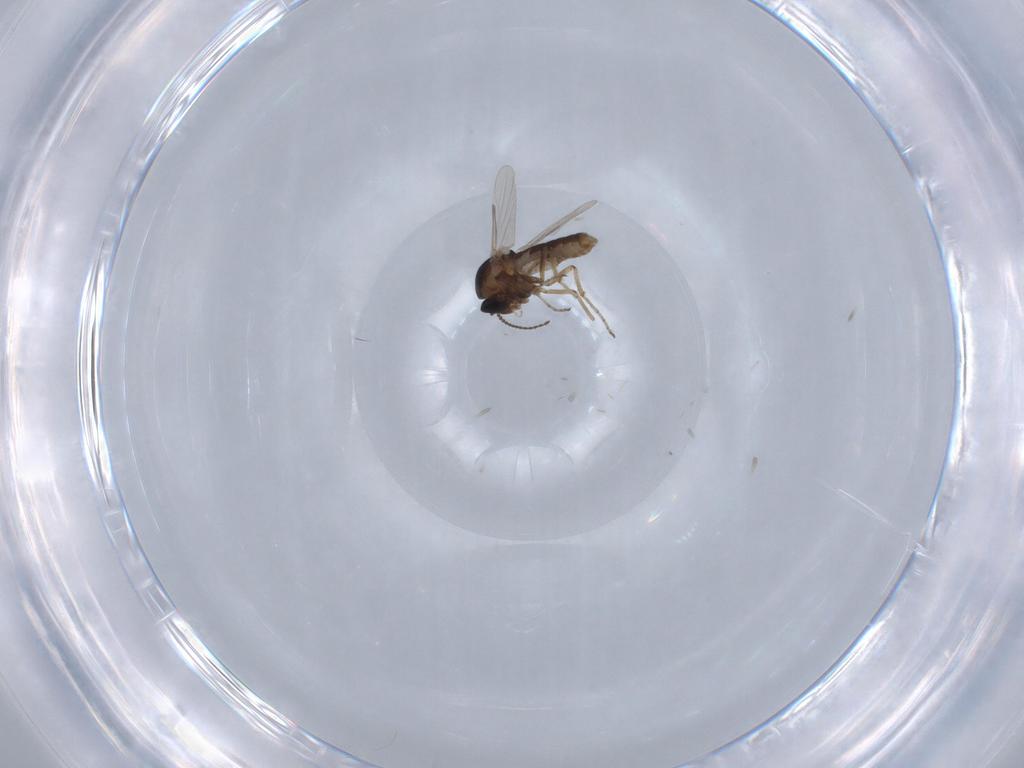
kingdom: Animalia
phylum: Arthropoda
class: Insecta
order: Diptera
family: Ceratopogonidae
